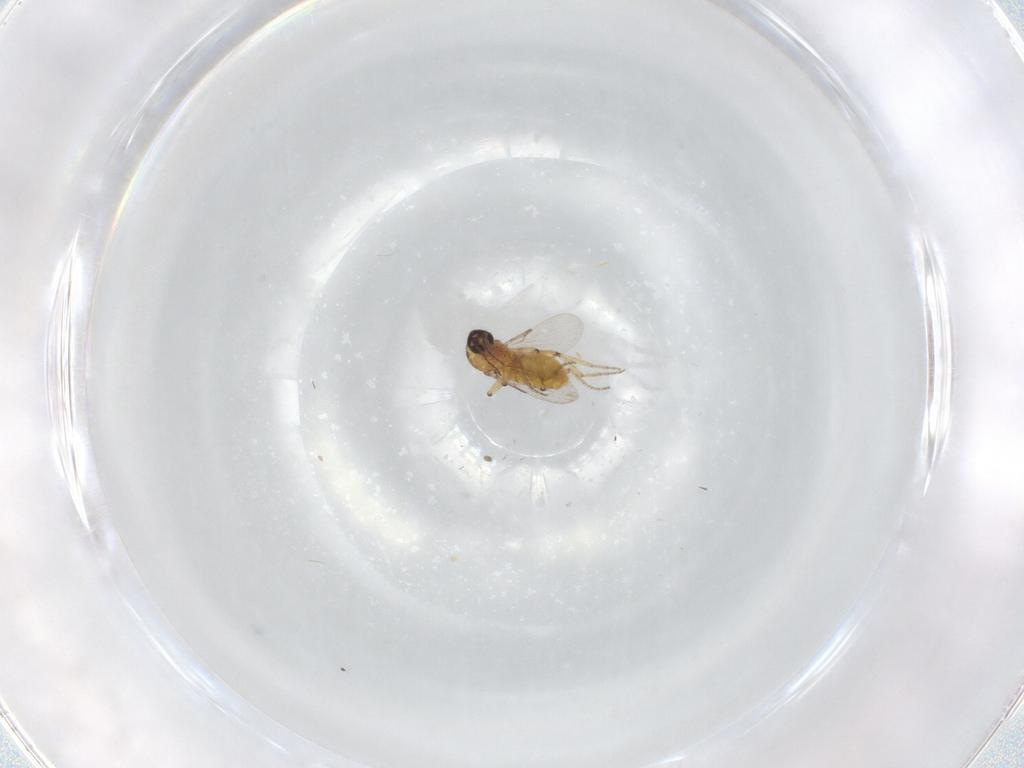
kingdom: Animalia
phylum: Arthropoda
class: Insecta
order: Diptera
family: Ceratopogonidae
